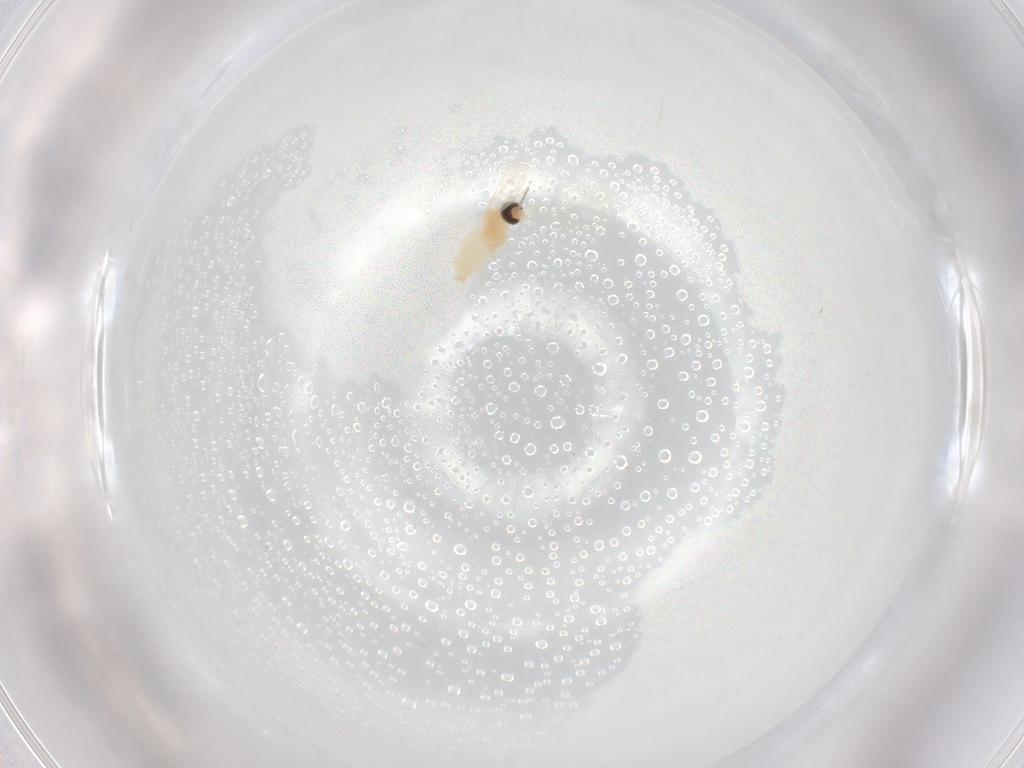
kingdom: Animalia
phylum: Arthropoda
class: Insecta
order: Diptera
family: Cecidomyiidae
